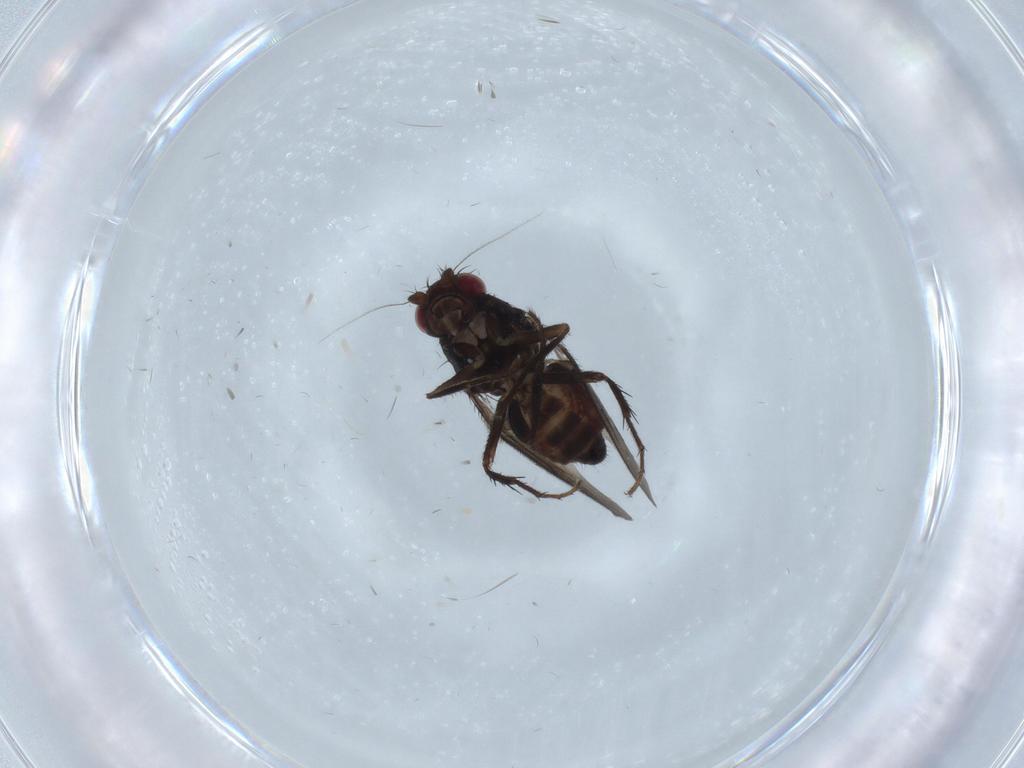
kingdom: Animalia
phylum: Arthropoda
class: Insecta
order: Diptera
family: Sphaeroceridae
